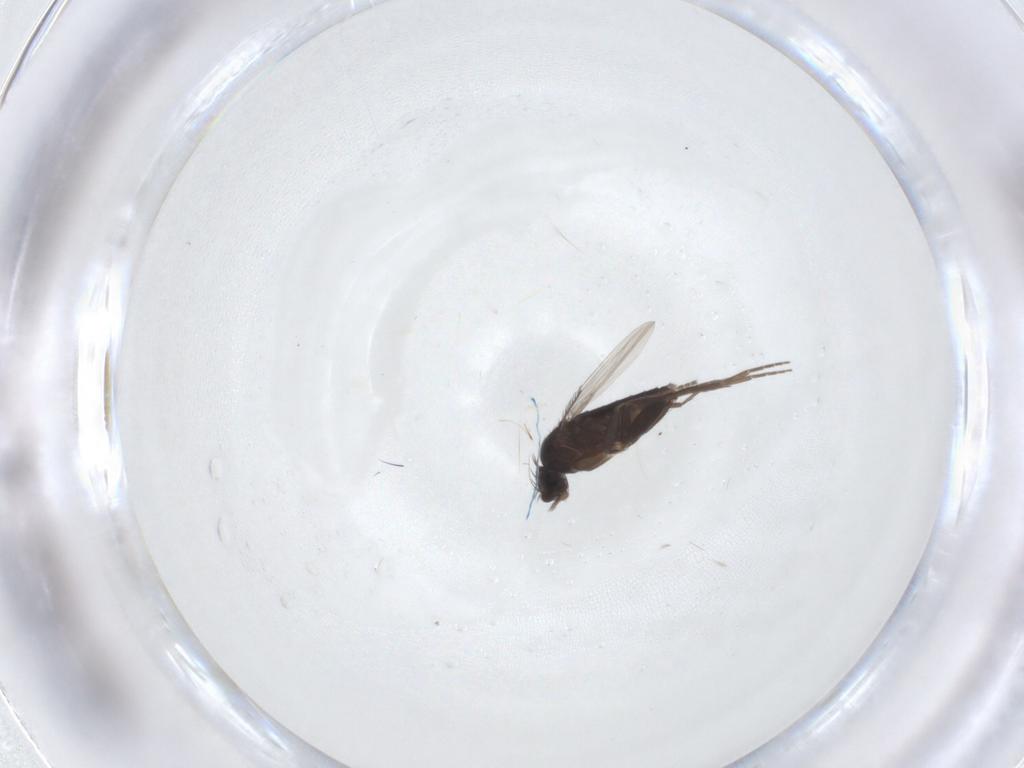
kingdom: Animalia
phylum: Arthropoda
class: Insecta
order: Diptera
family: Phoridae
